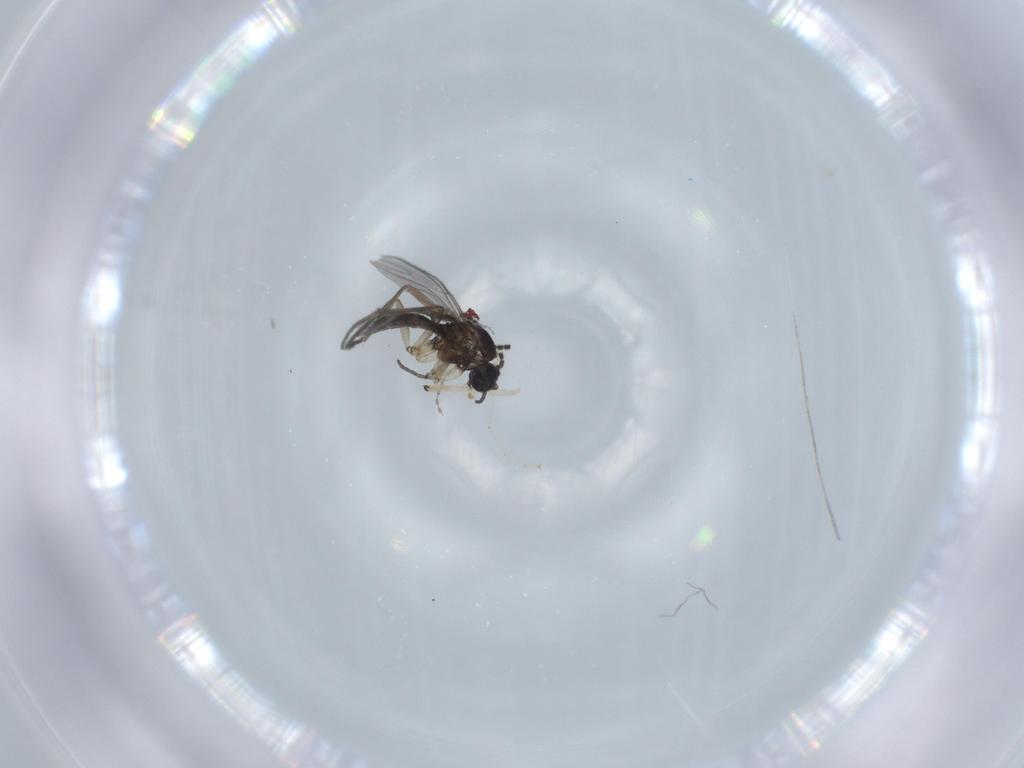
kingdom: Animalia
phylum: Arthropoda
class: Insecta
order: Diptera
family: Sciaridae
